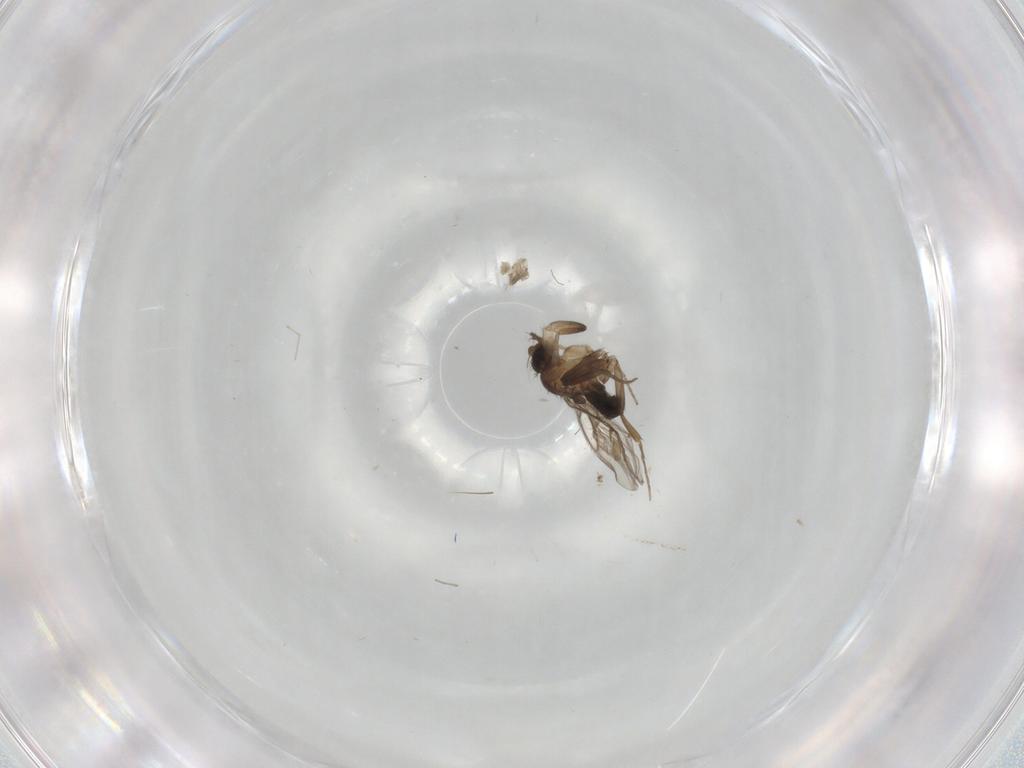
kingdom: Animalia
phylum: Arthropoda
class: Insecta
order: Diptera
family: Phoridae
